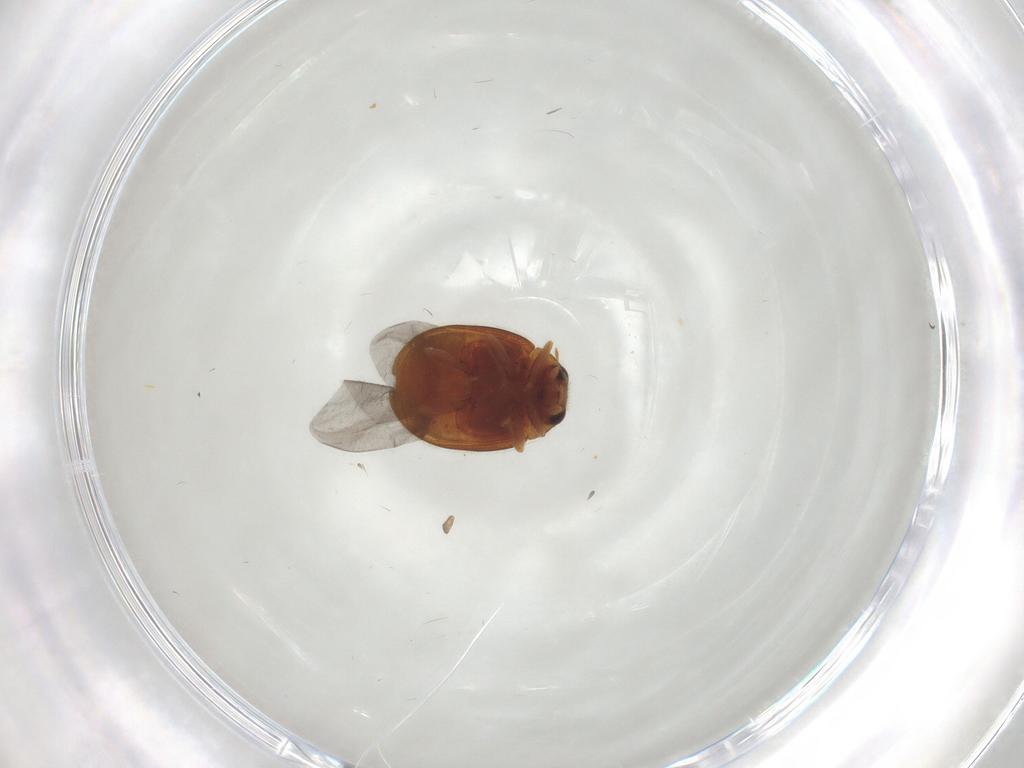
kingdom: Animalia
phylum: Arthropoda
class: Insecta
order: Coleoptera
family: Coccinellidae
